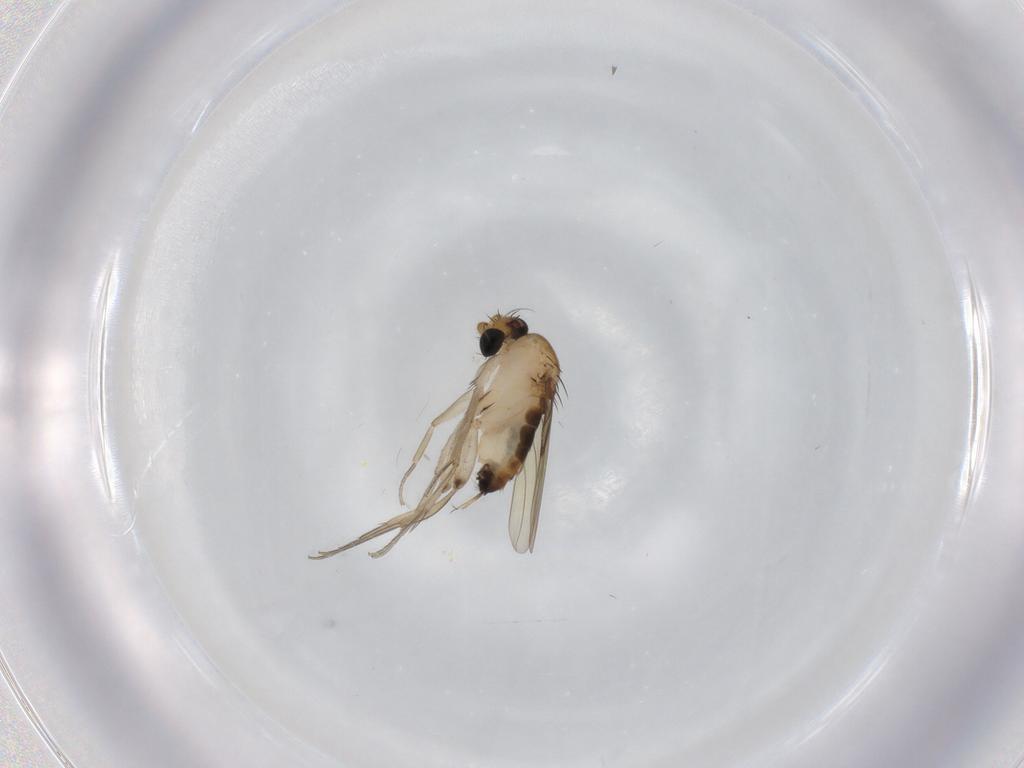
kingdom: Animalia
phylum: Arthropoda
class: Insecta
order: Diptera
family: Phoridae
